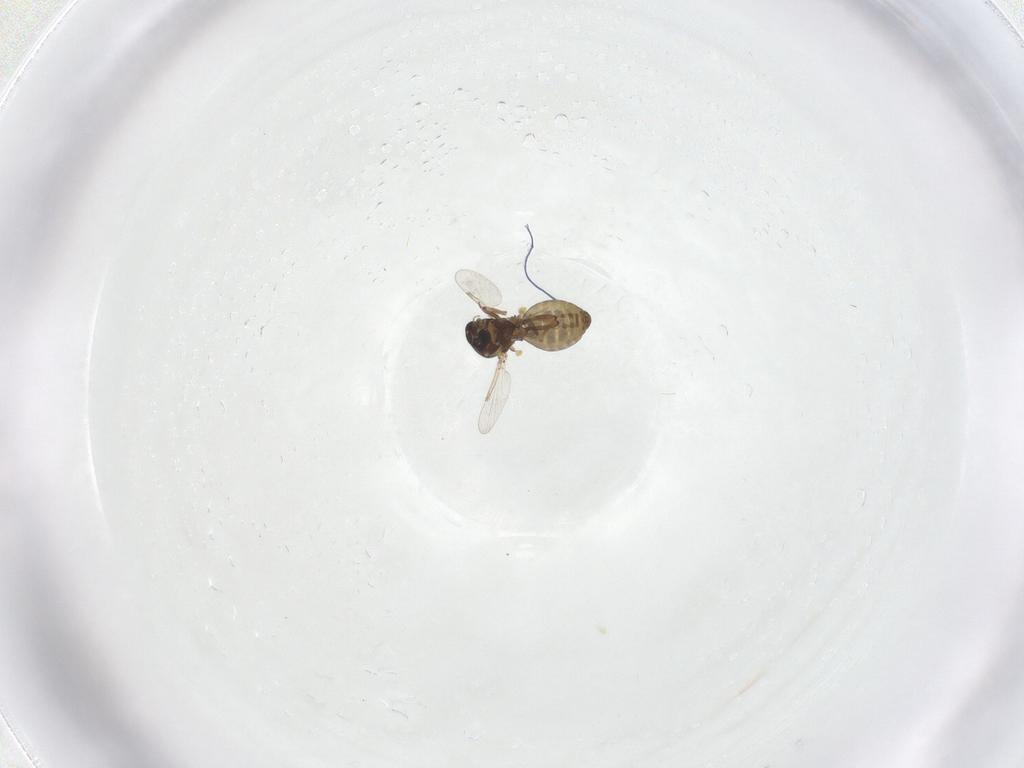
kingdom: Animalia
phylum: Arthropoda
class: Insecta
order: Diptera
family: Ceratopogonidae
